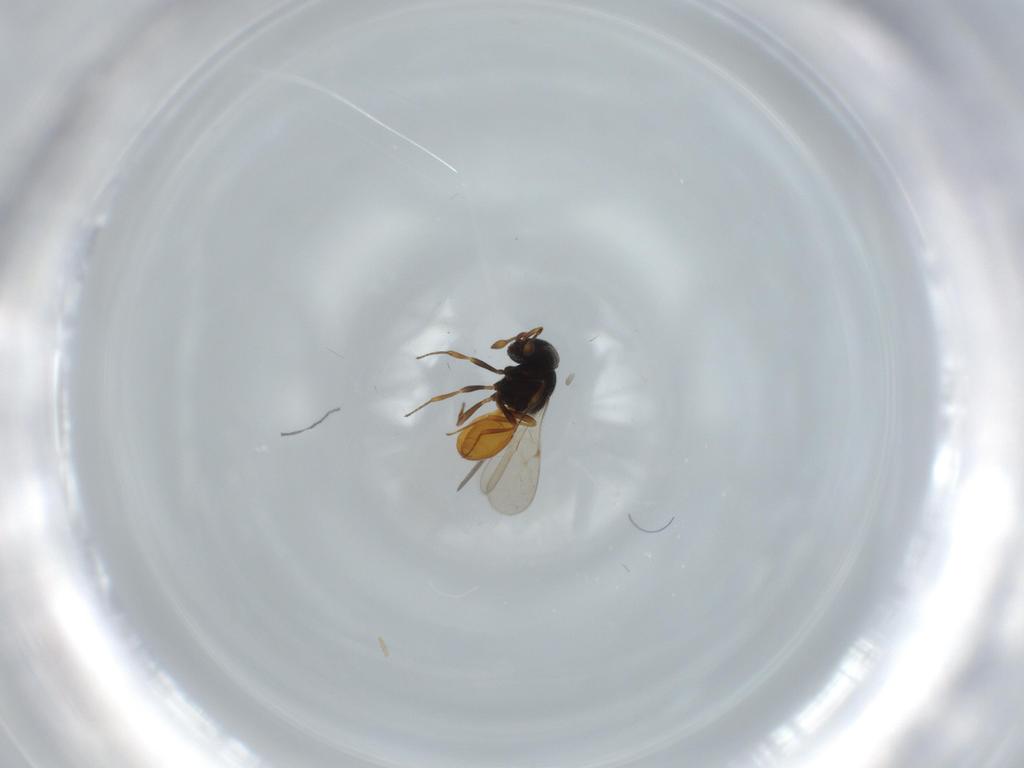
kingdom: Animalia
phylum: Arthropoda
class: Insecta
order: Hymenoptera
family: Scelionidae
